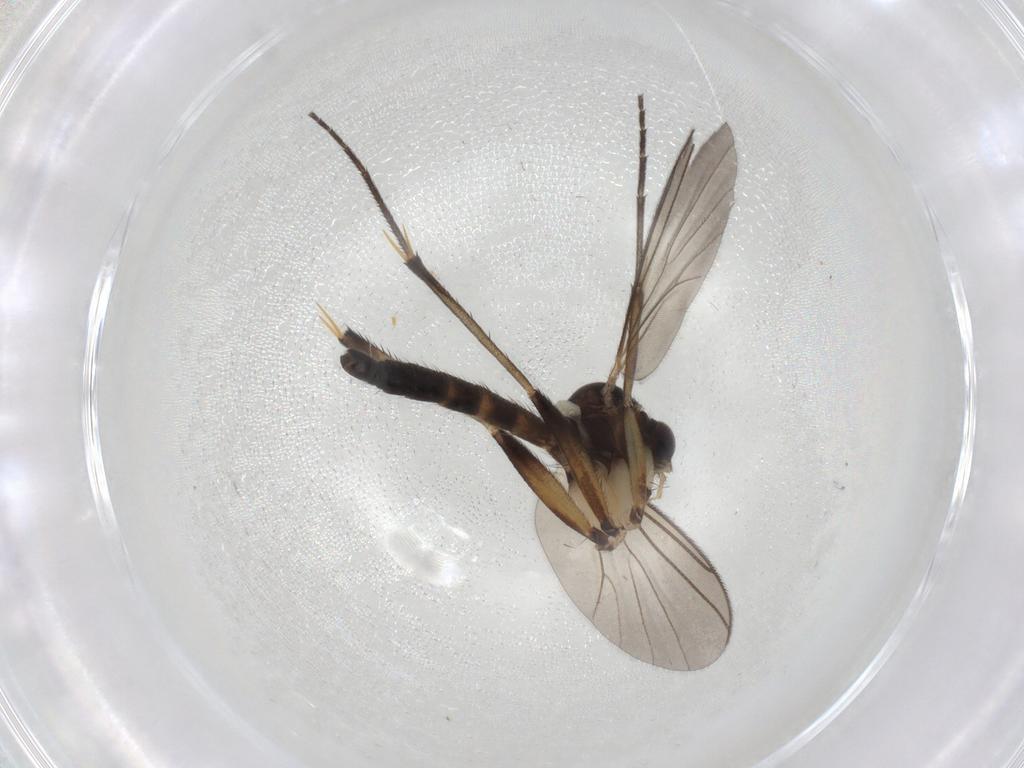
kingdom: Animalia
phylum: Arthropoda
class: Insecta
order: Diptera
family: Mycetophilidae
